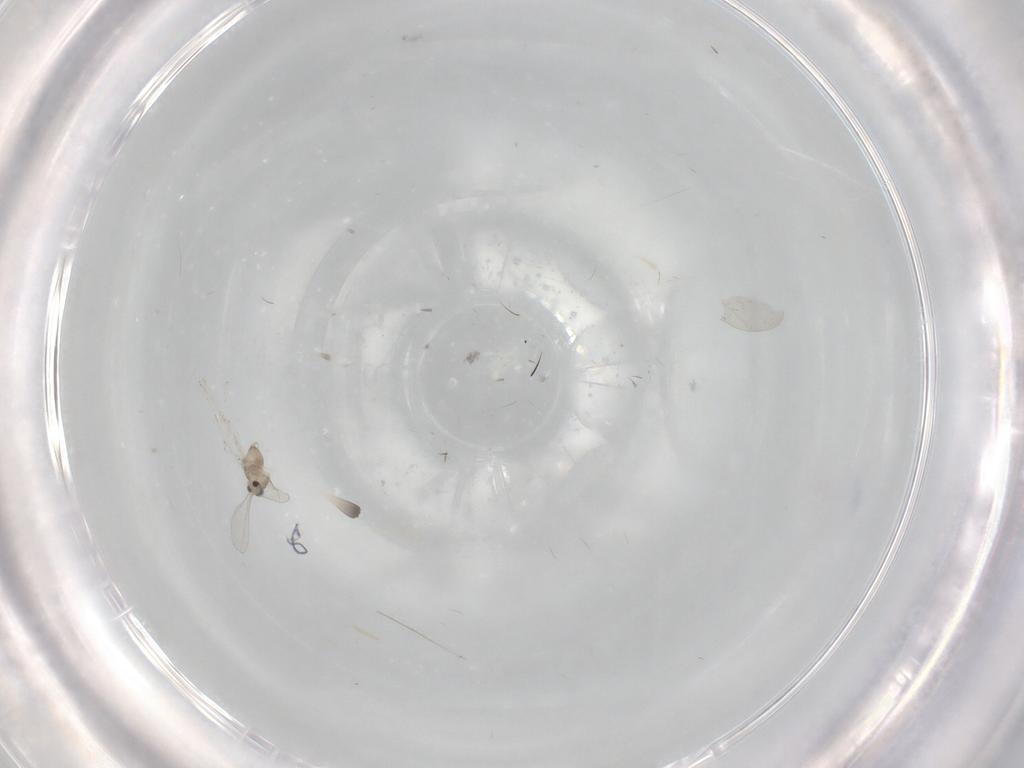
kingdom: Animalia
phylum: Arthropoda
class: Insecta
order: Diptera
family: Cecidomyiidae
